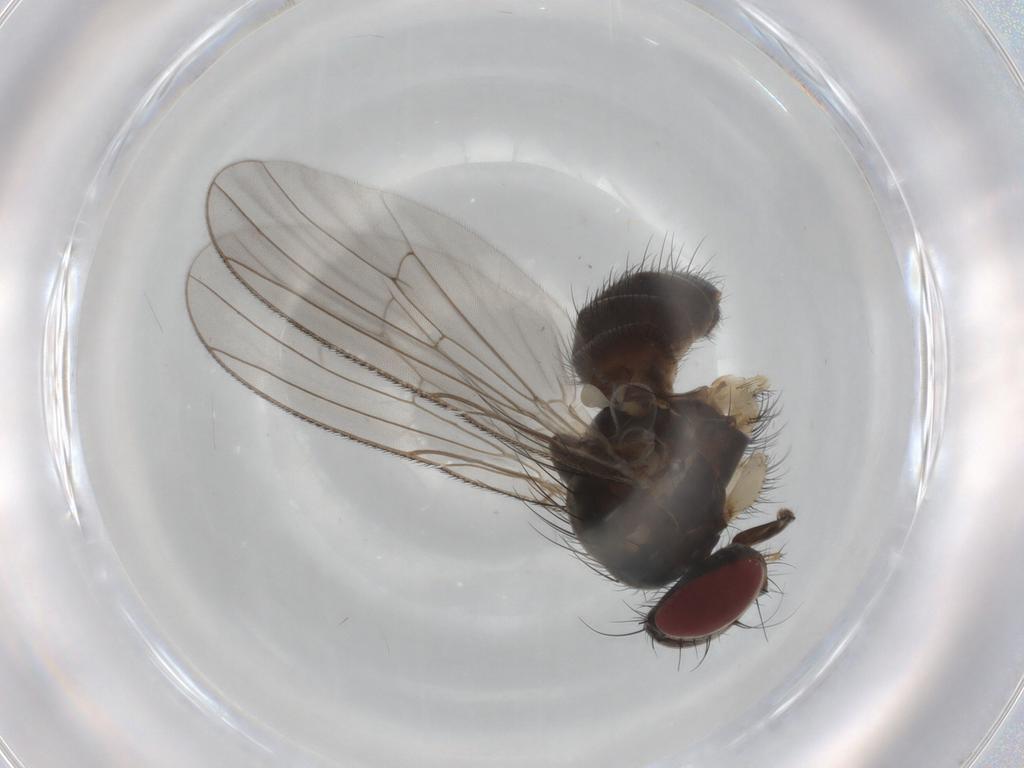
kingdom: Animalia
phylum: Arthropoda
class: Insecta
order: Diptera
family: Muscidae
